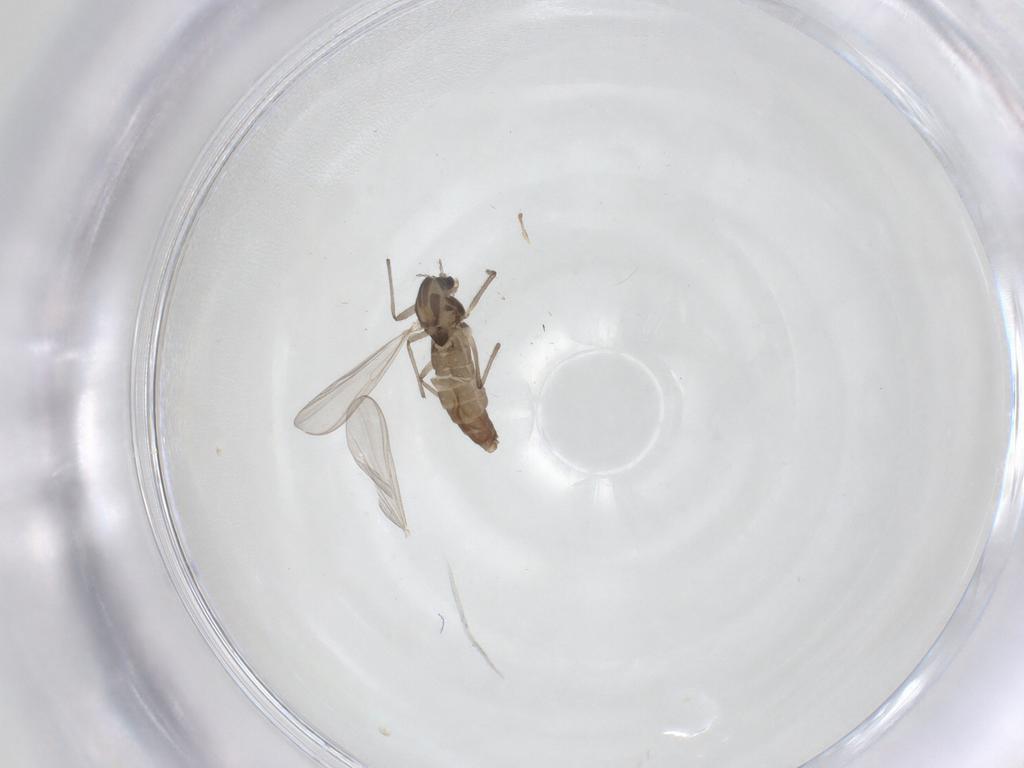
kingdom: Animalia
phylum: Arthropoda
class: Insecta
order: Diptera
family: Chironomidae
